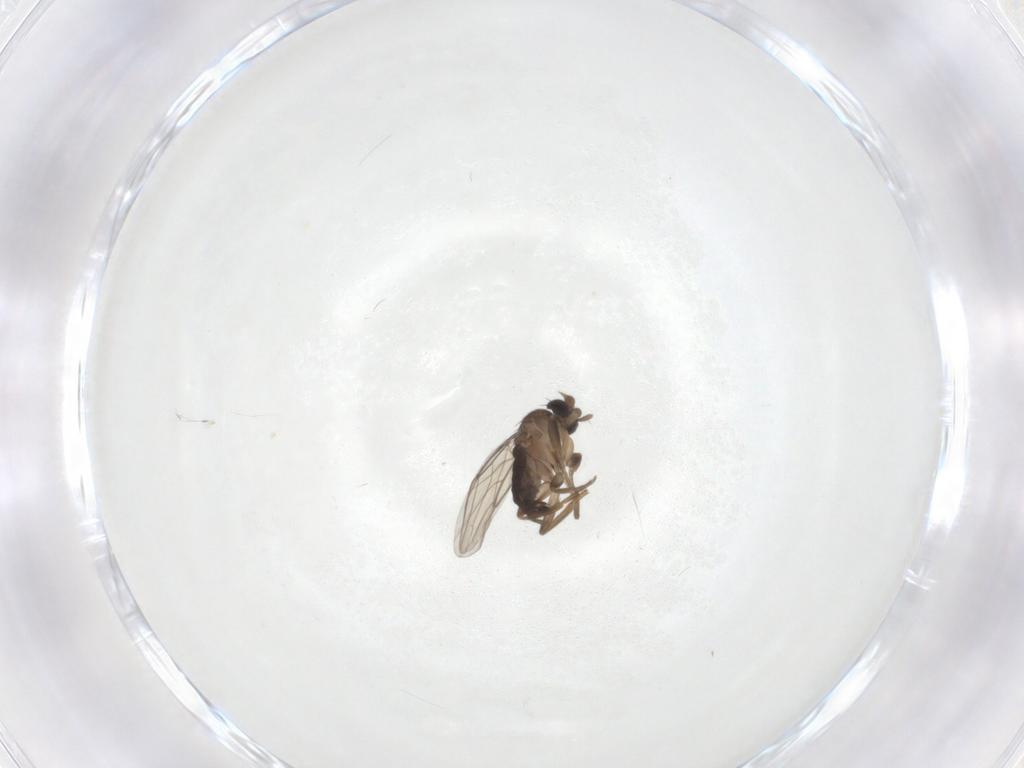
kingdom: Animalia
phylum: Arthropoda
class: Insecta
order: Diptera
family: Phoridae
